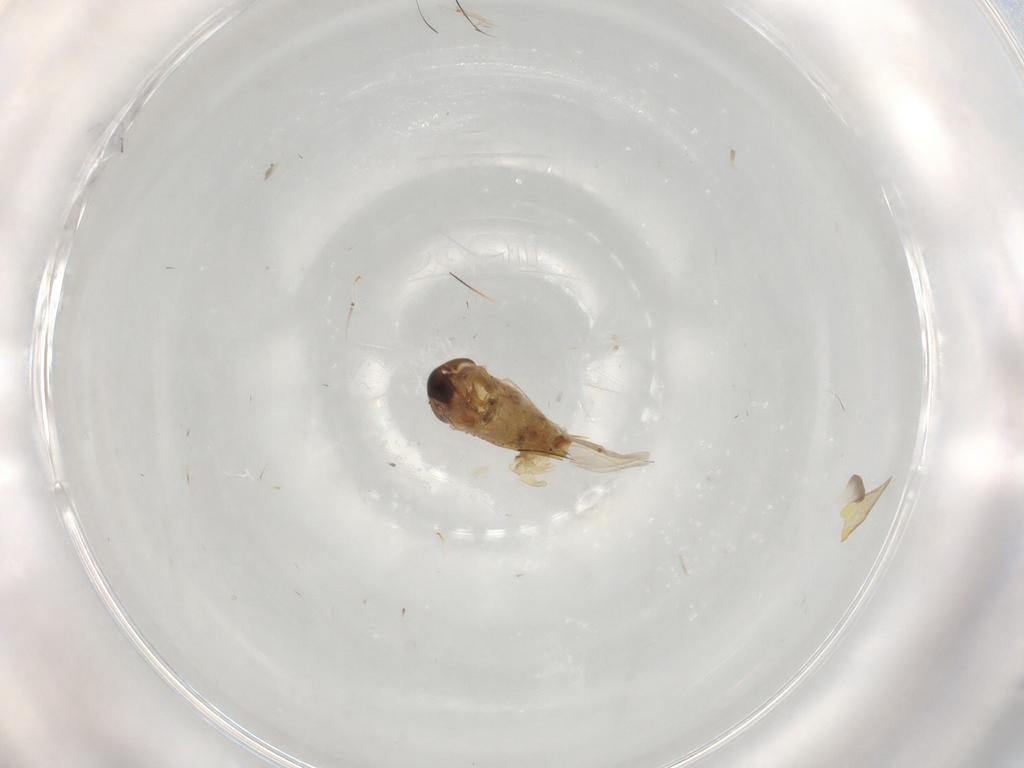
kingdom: Animalia
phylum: Arthropoda
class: Insecta
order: Hemiptera
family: Cicadellidae
